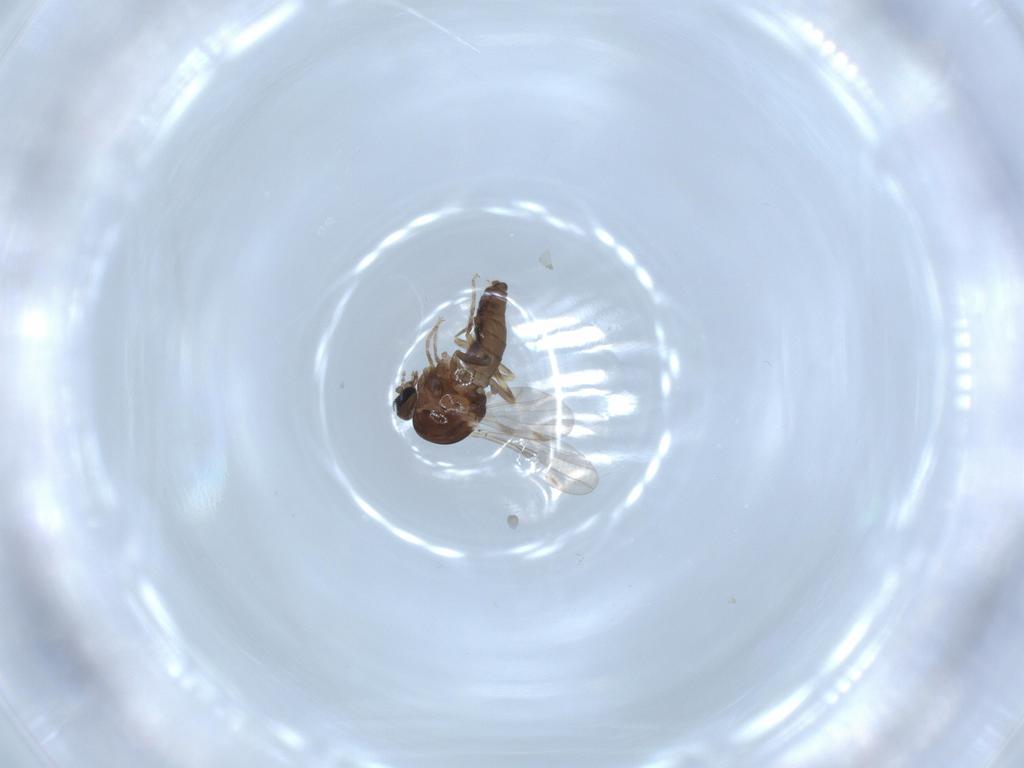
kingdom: Animalia
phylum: Arthropoda
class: Insecta
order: Diptera
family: Ceratopogonidae
